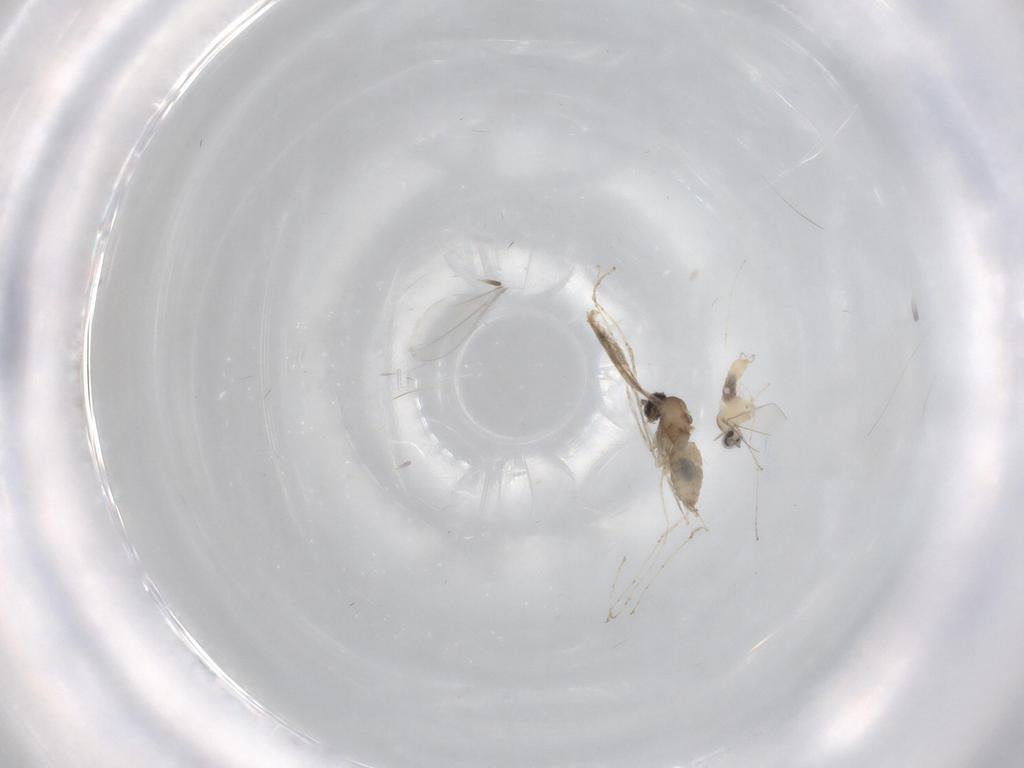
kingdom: Animalia
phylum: Arthropoda
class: Insecta
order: Diptera
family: Cecidomyiidae
